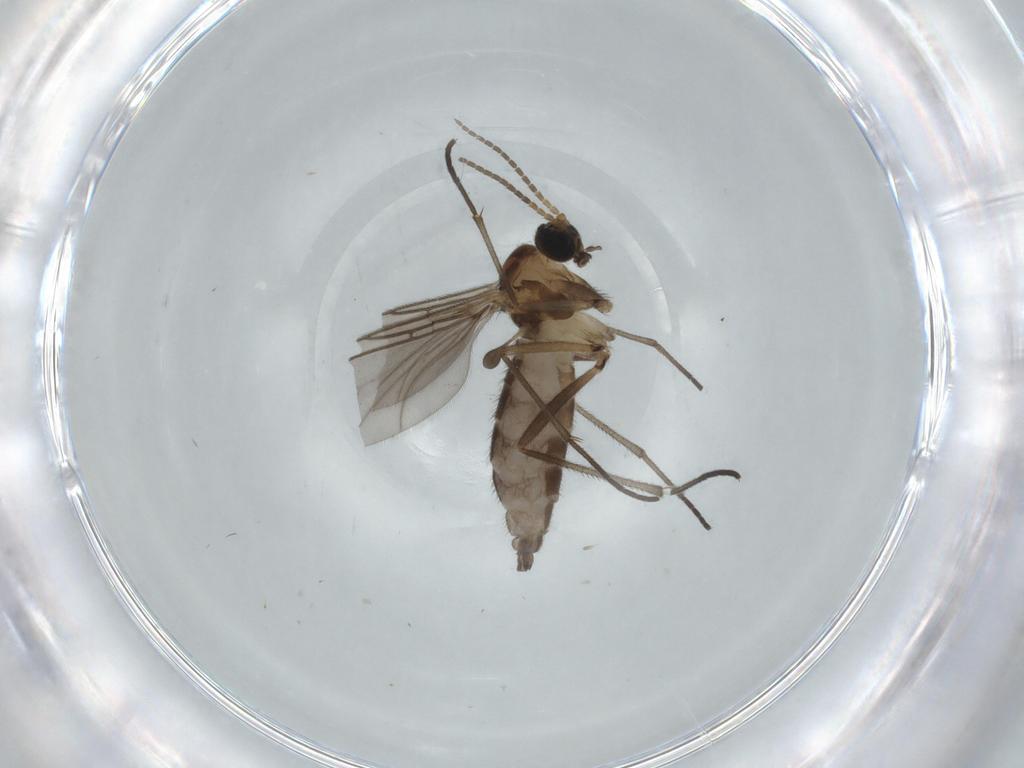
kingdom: Animalia
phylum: Arthropoda
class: Insecta
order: Diptera
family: Sciaridae
